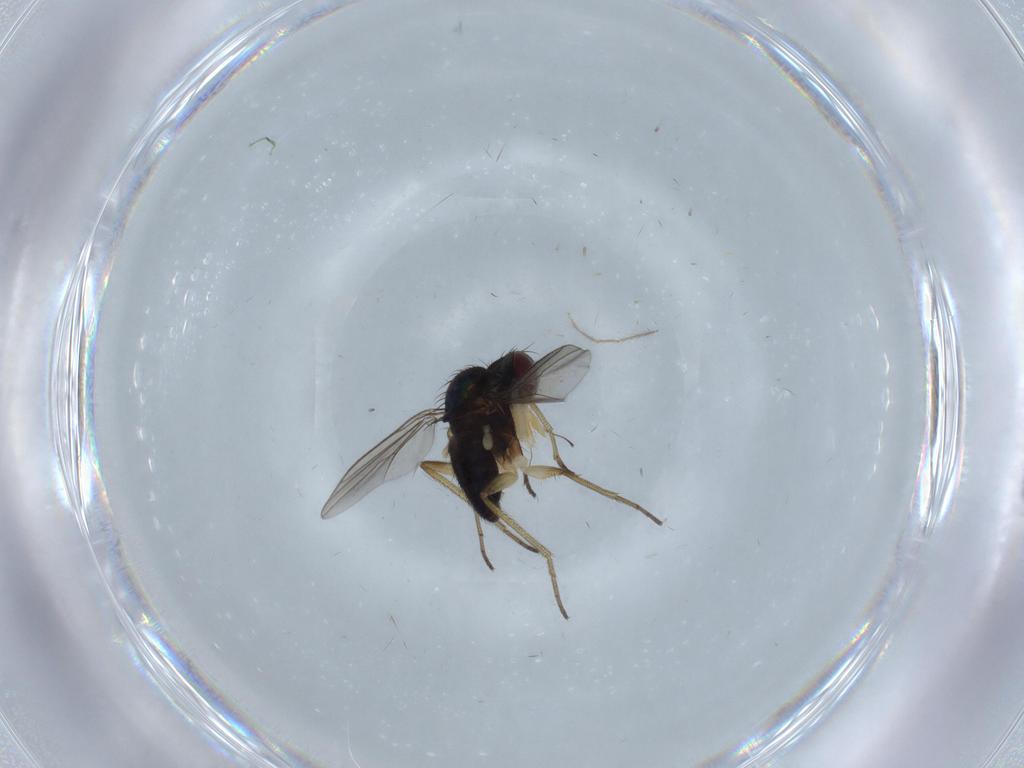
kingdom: Animalia
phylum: Arthropoda
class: Insecta
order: Diptera
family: Dolichopodidae
